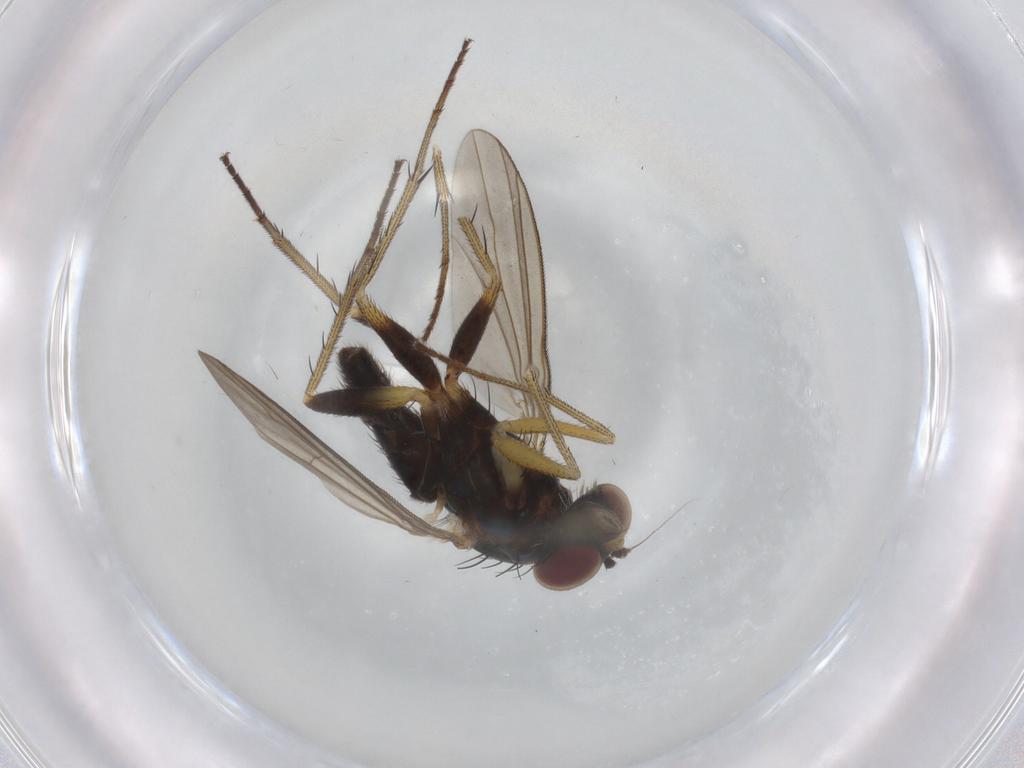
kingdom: Animalia
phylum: Arthropoda
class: Insecta
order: Diptera
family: Dolichopodidae
